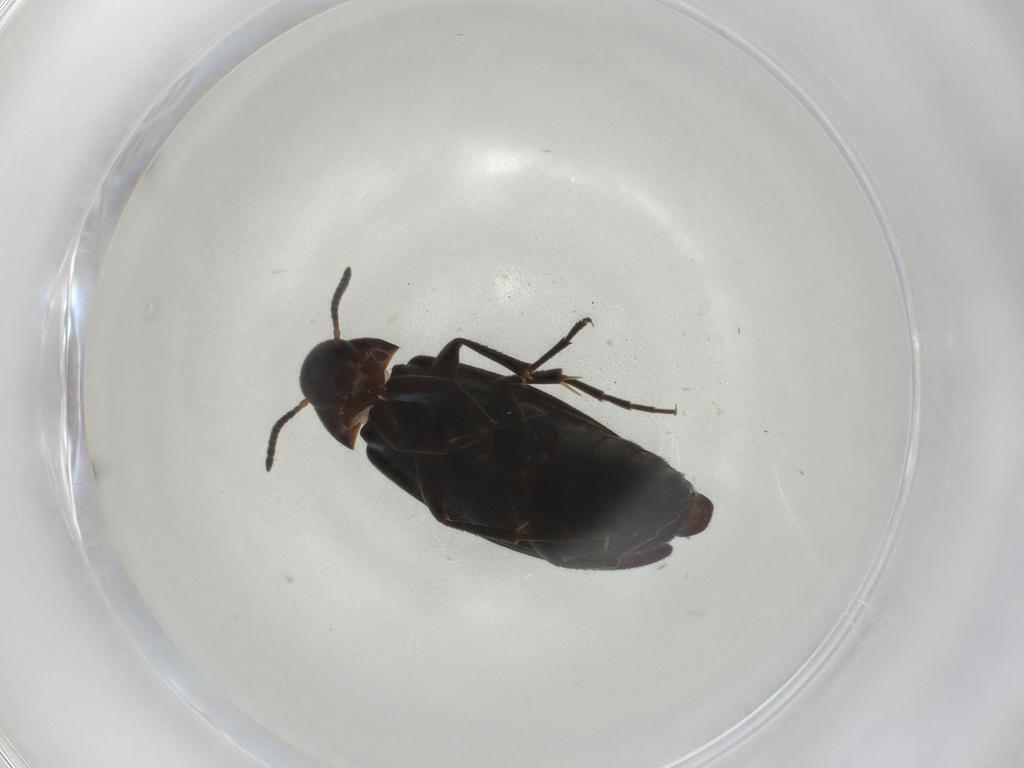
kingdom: Animalia
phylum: Arthropoda
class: Insecta
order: Coleoptera
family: Scraptiidae
